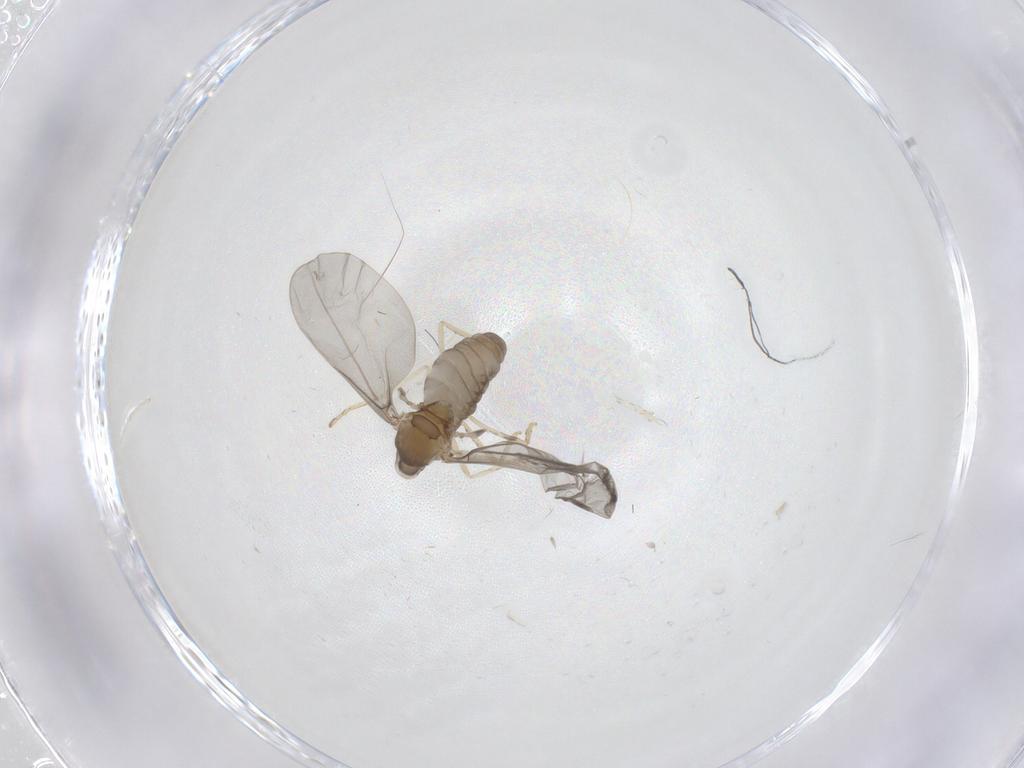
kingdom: Animalia
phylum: Arthropoda
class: Insecta
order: Diptera
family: Cecidomyiidae
